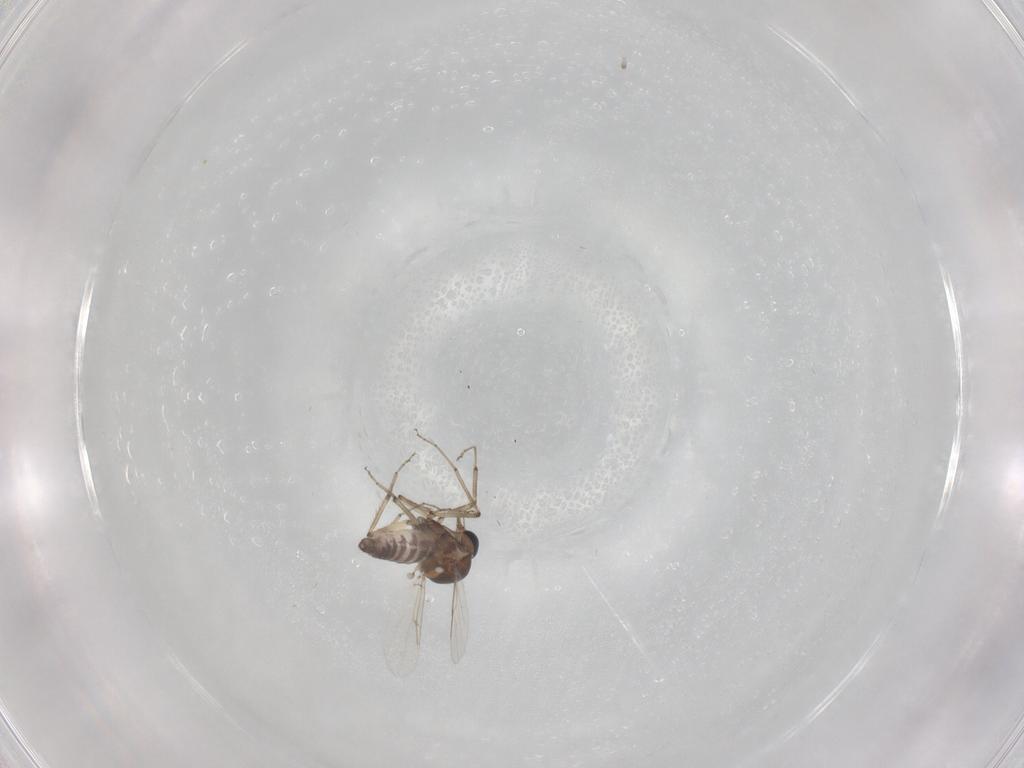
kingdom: Animalia
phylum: Arthropoda
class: Insecta
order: Diptera
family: Ceratopogonidae
